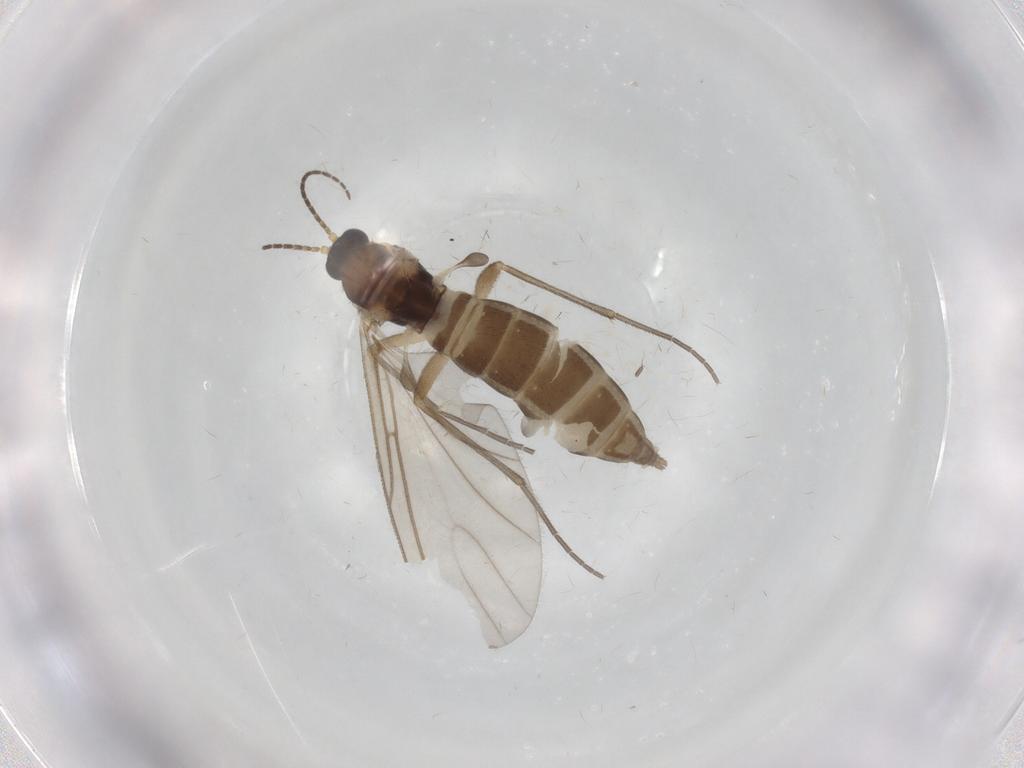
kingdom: Animalia
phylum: Arthropoda
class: Insecta
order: Diptera
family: Sciaridae
